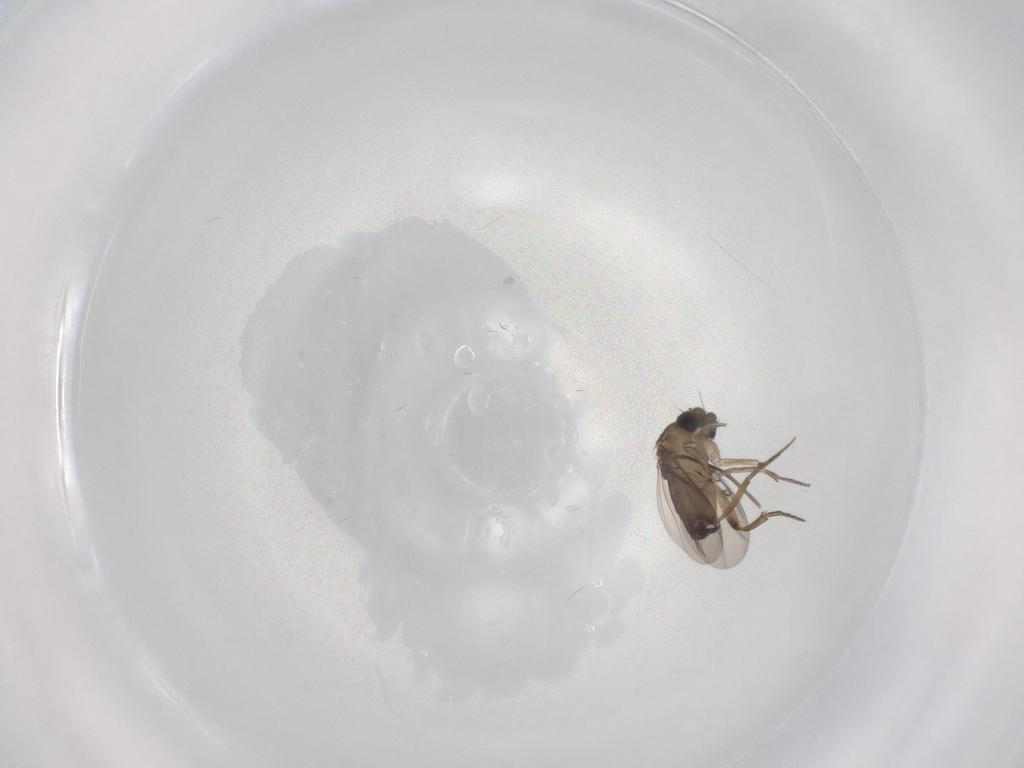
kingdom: Animalia
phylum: Arthropoda
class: Insecta
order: Diptera
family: Phoridae
